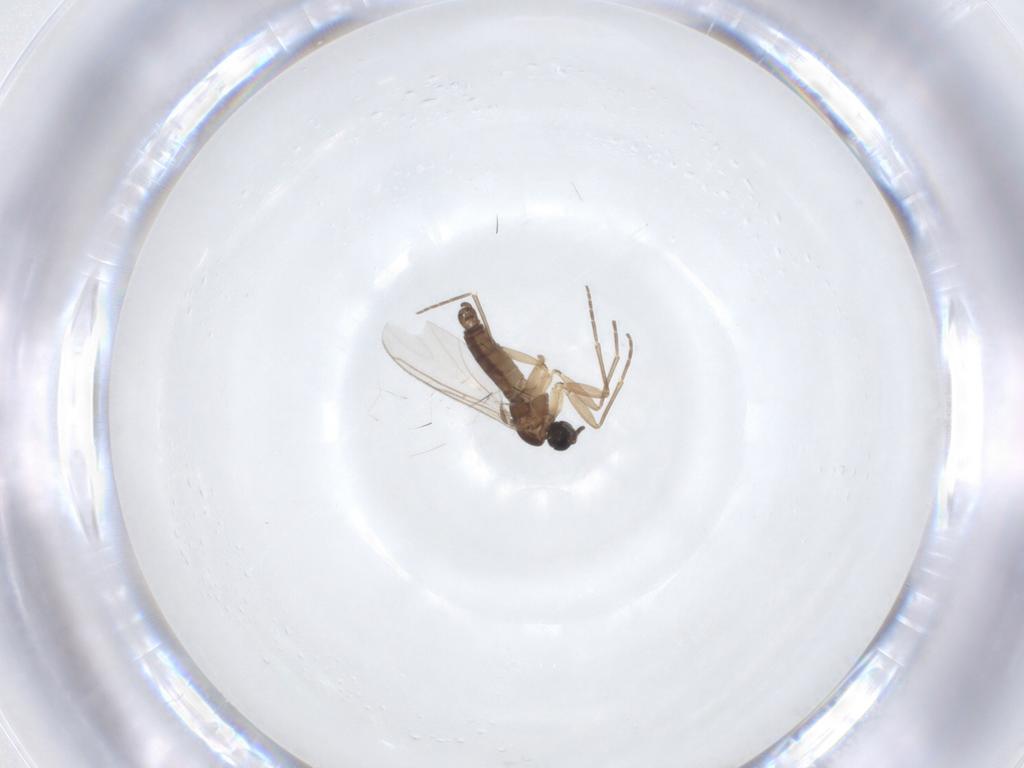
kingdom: Animalia
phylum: Arthropoda
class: Insecta
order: Diptera
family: Sciaridae
